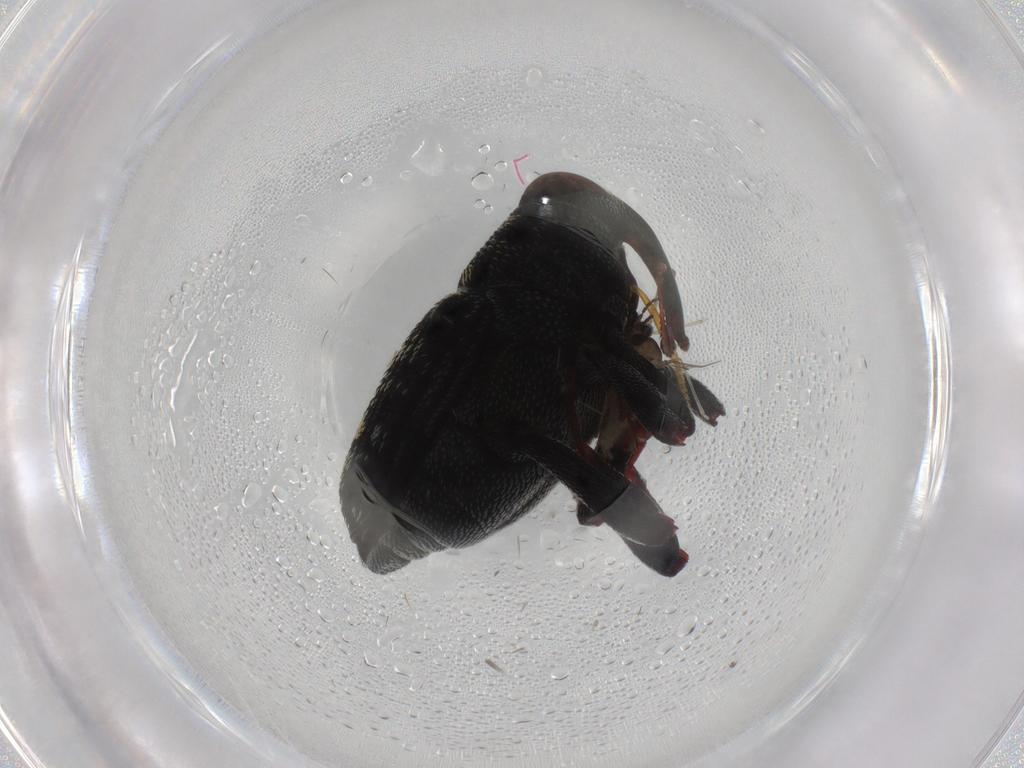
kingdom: Animalia
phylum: Arthropoda
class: Insecta
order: Coleoptera
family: Curculionidae
